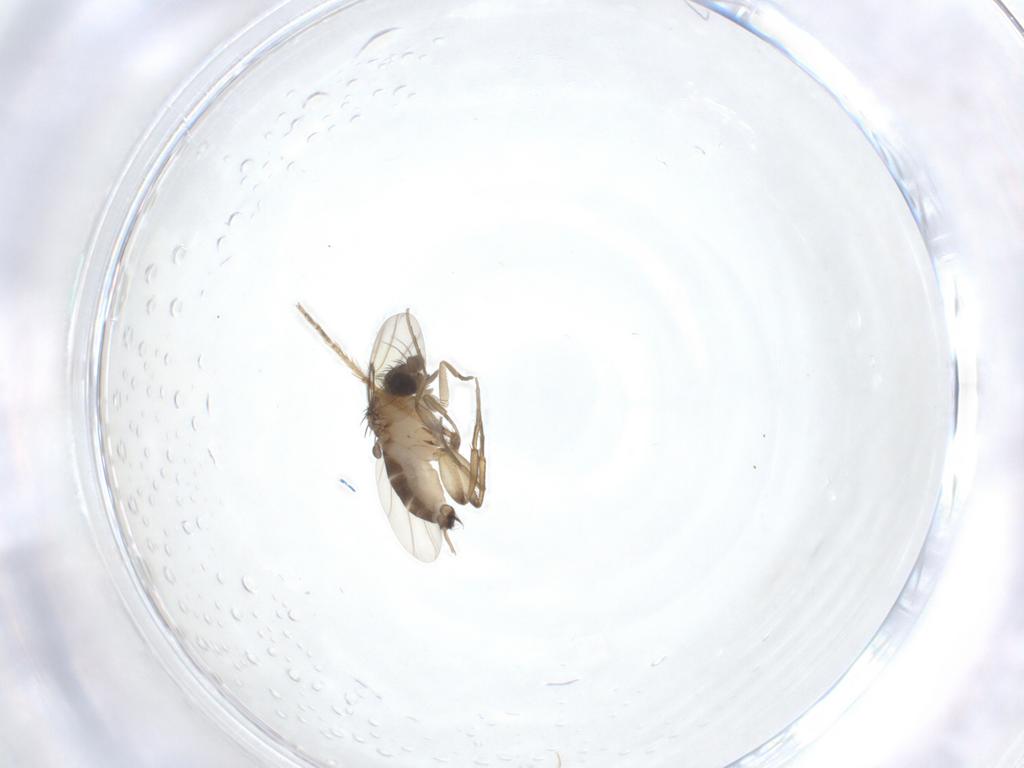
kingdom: Animalia
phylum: Arthropoda
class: Insecta
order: Diptera
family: Phoridae
